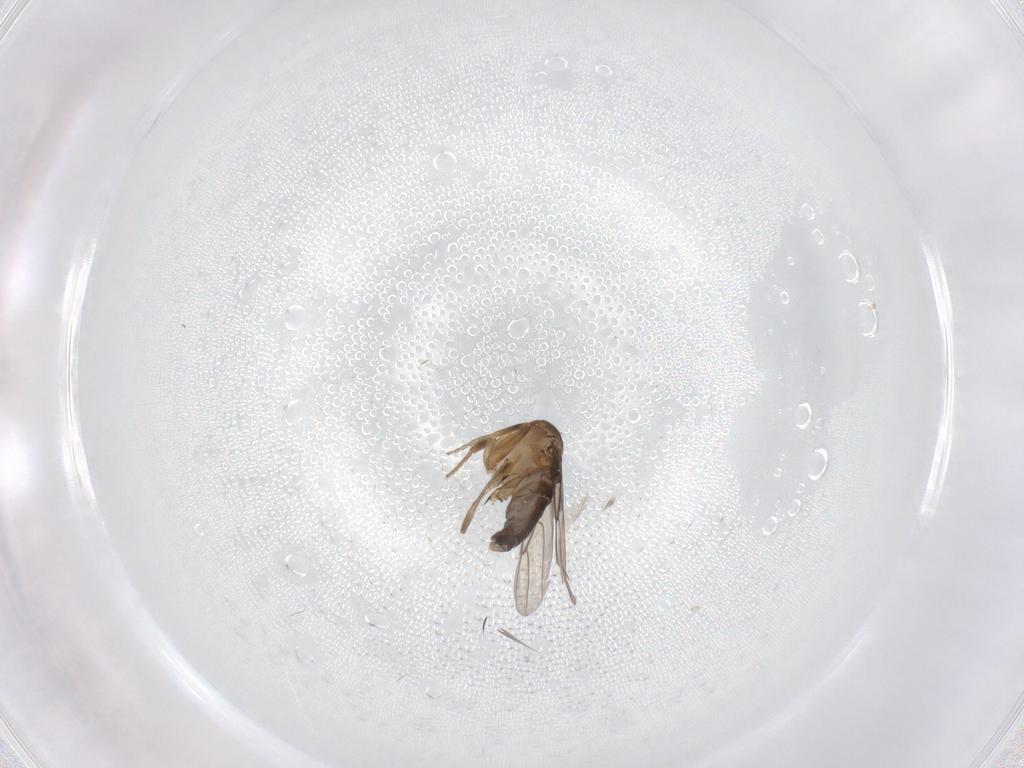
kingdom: Animalia
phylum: Arthropoda
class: Insecta
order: Diptera
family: Phoridae
